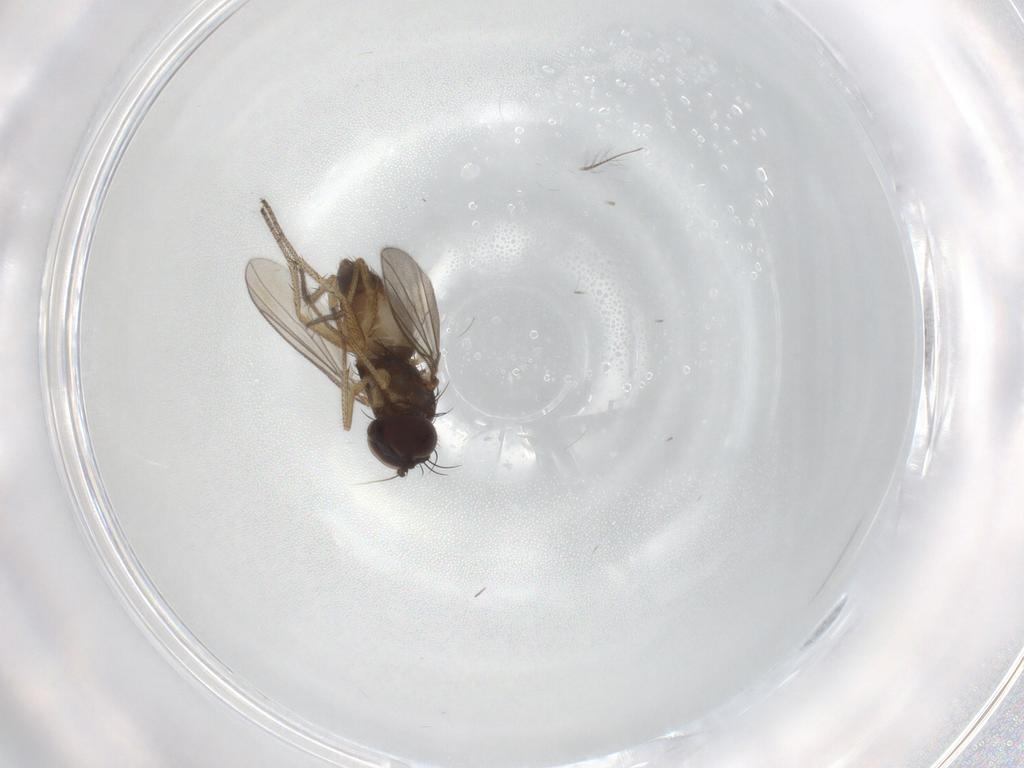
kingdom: Animalia
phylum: Arthropoda
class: Insecta
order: Diptera
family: Dolichopodidae
